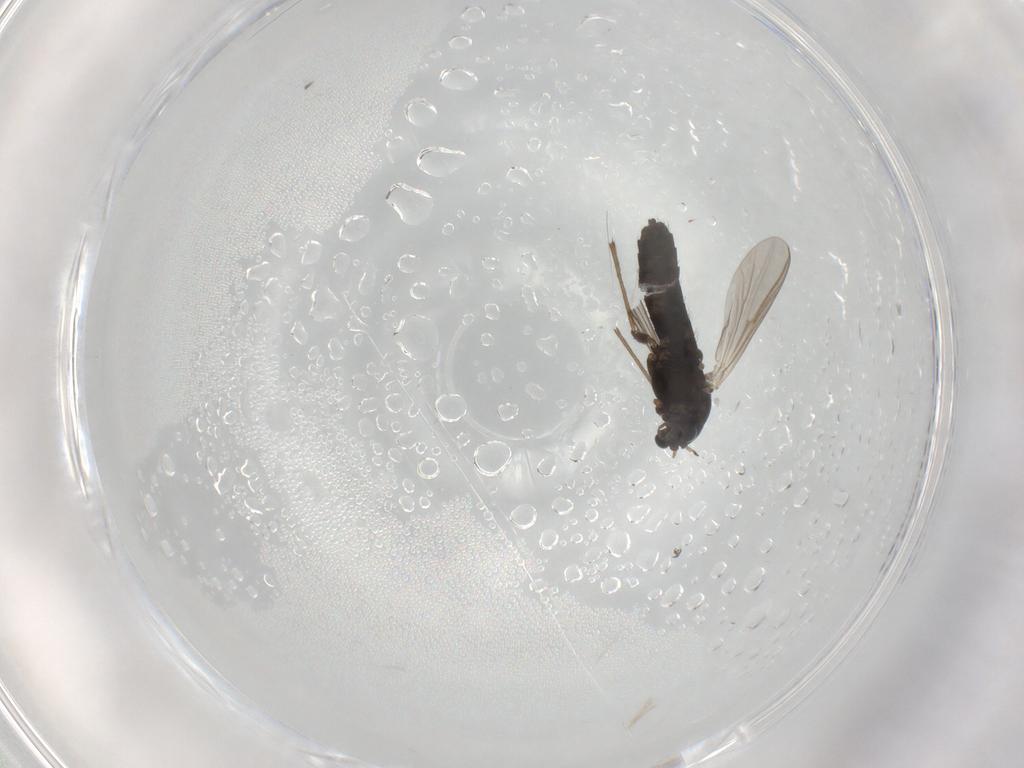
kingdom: Animalia
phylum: Arthropoda
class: Insecta
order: Diptera
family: Chironomidae
